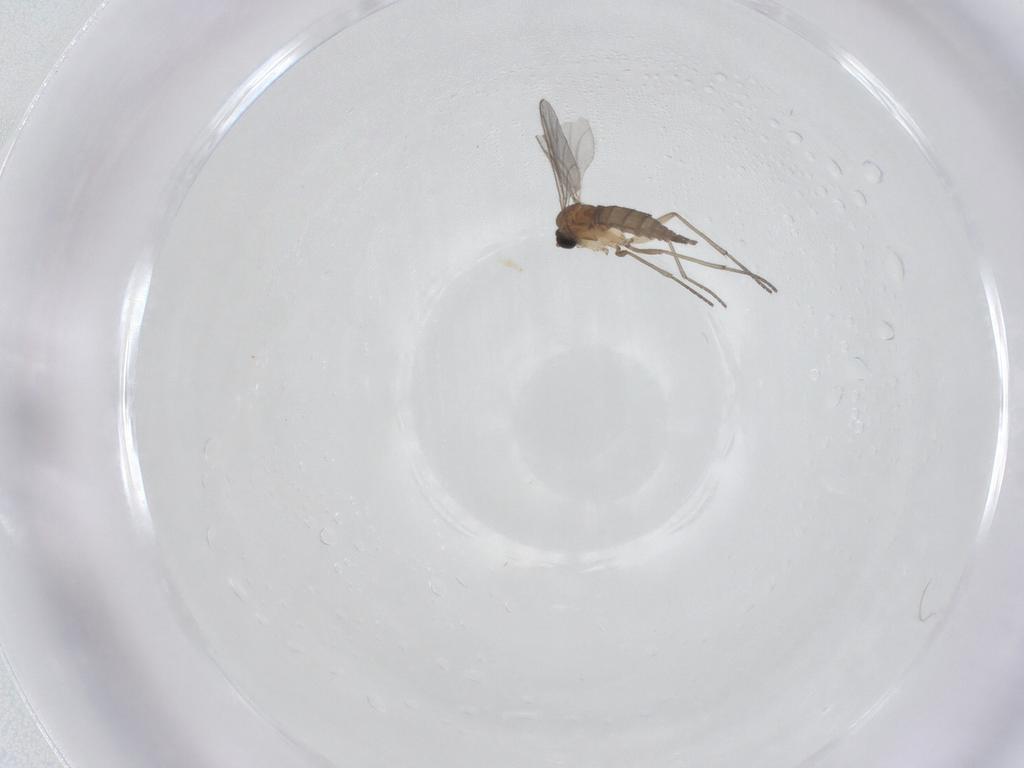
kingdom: Animalia
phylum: Arthropoda
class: Insecta
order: Diptera
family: Sciaridae
